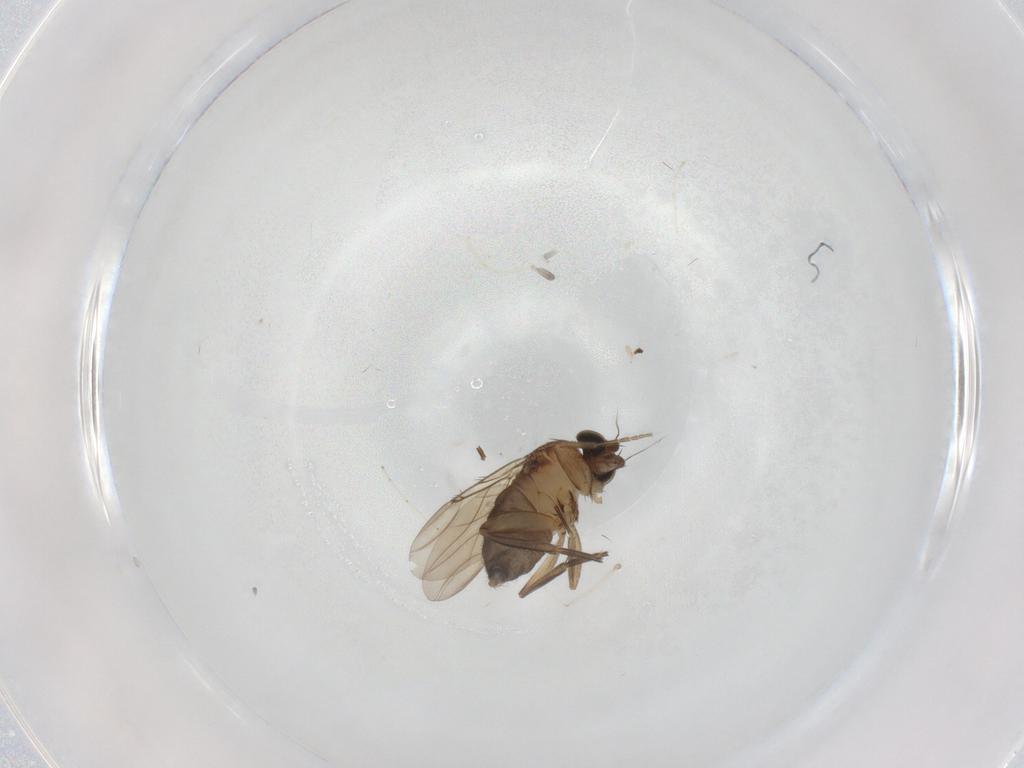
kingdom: Animalia
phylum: Arthropoda
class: Insecta
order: Diptera
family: Phoridae
